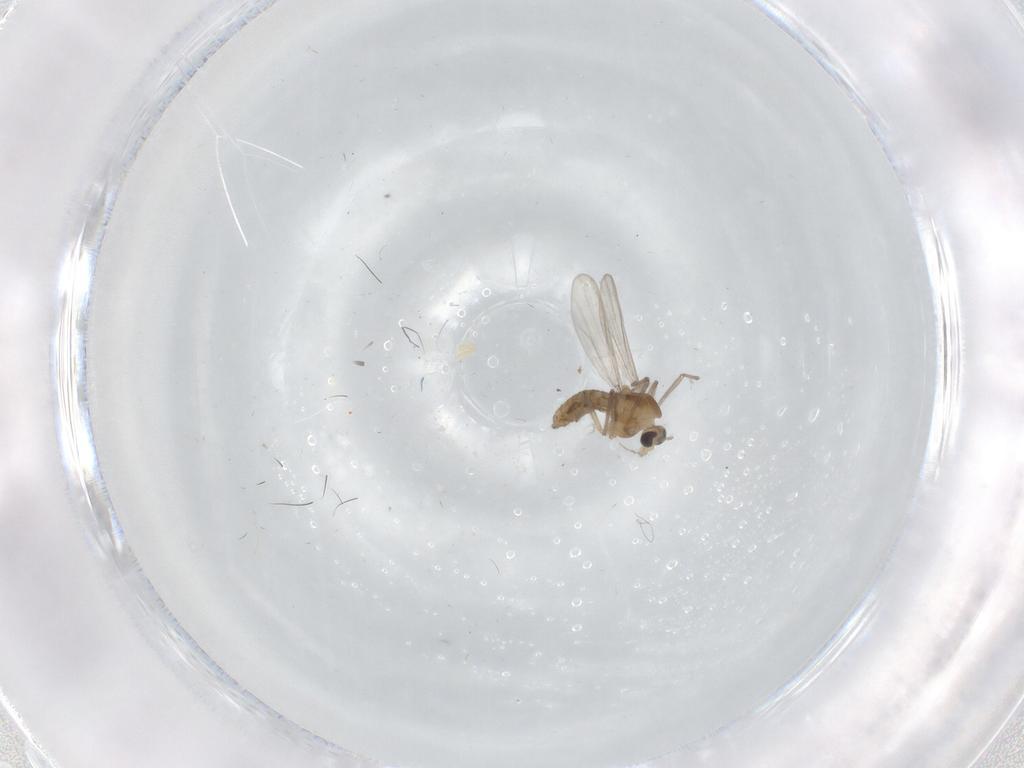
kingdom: Animalia
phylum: Arthropoda
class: Insecta
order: Diptera
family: Chironomidae
